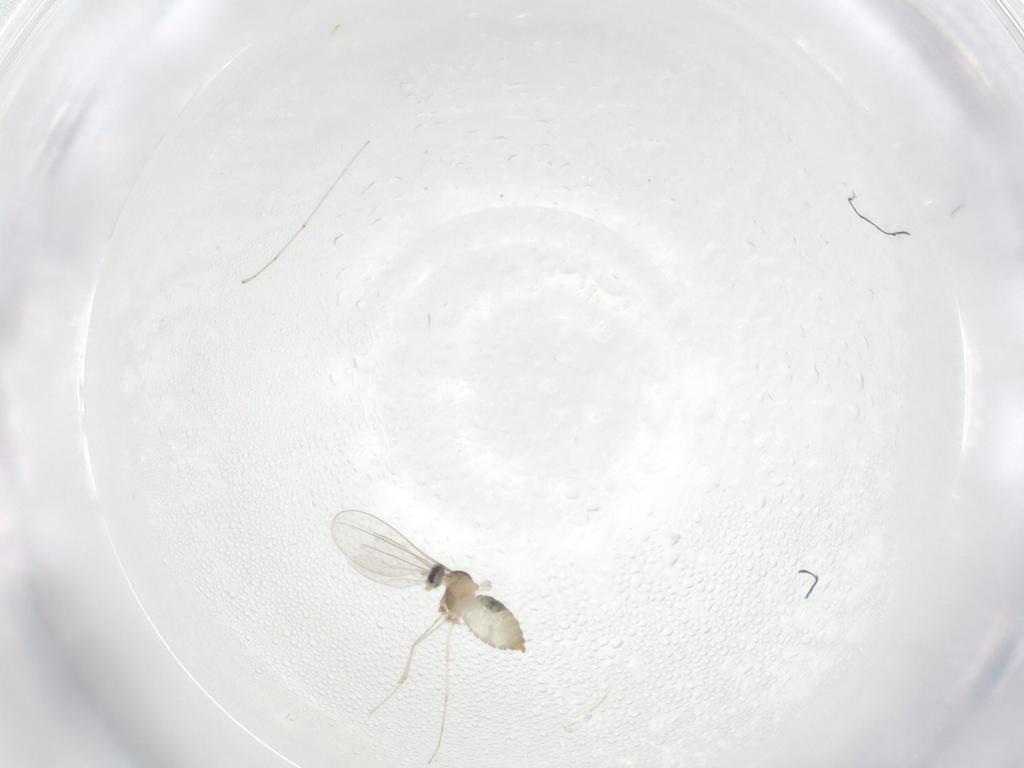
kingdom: Animalia
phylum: Arthropoda
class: Insecta
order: Diptera
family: Cecidomyiidae
